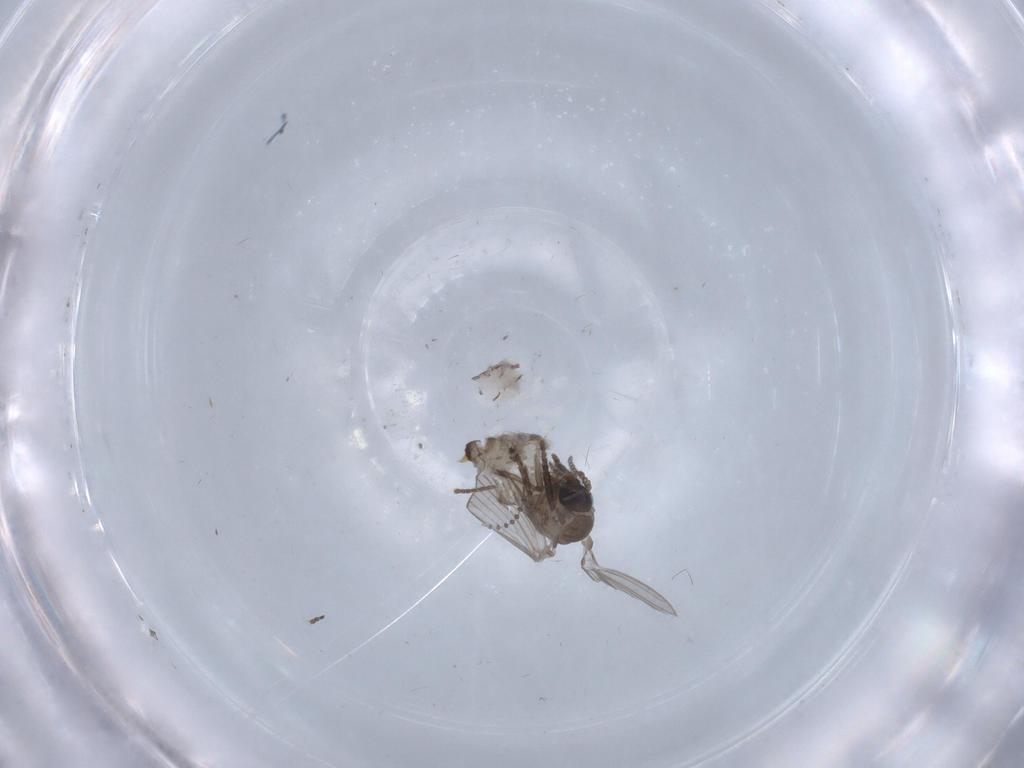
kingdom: Animalia
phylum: Arthropoda
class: Insecta
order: Diptera
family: Psychodidae
